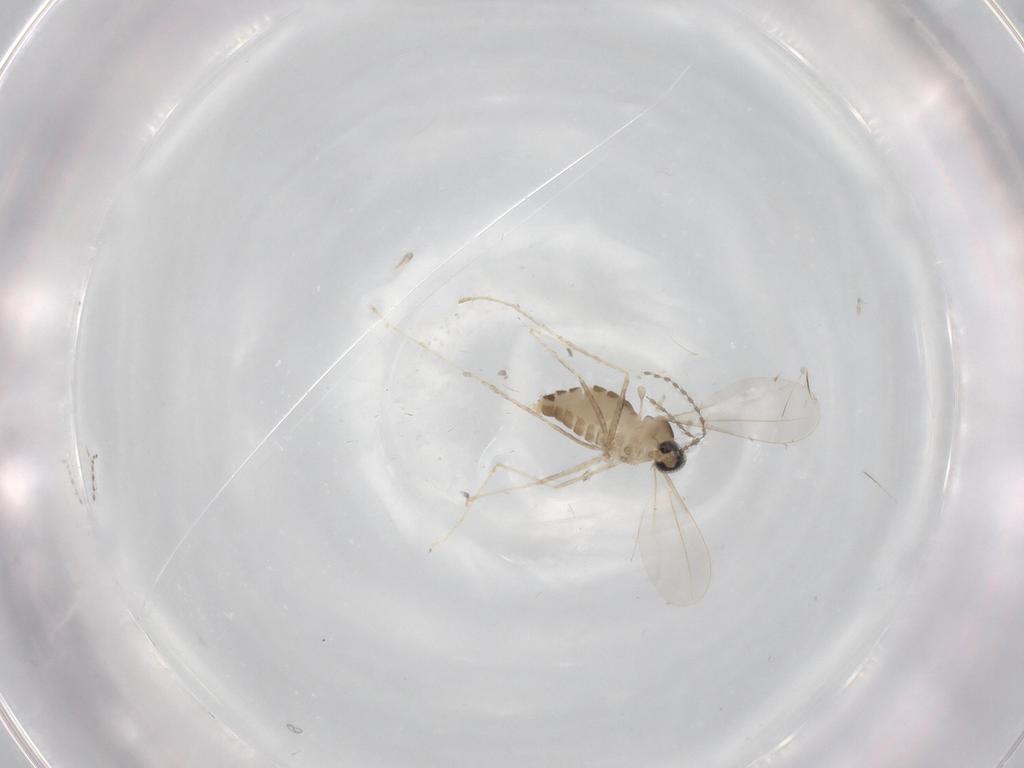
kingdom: Animalia
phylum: Arthropoda
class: Insecta
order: Diptera
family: Cecidomyiidae
